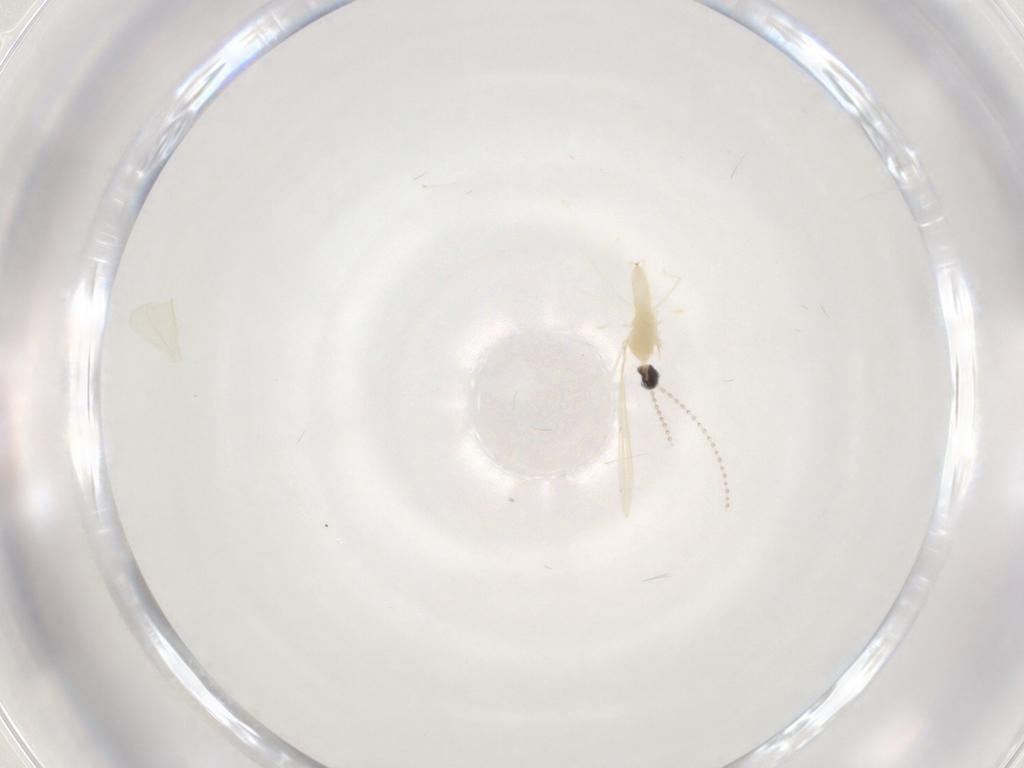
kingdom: Animalia
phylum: Arthropoda
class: Insecta
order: Diptera
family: Cecidomyiidae
